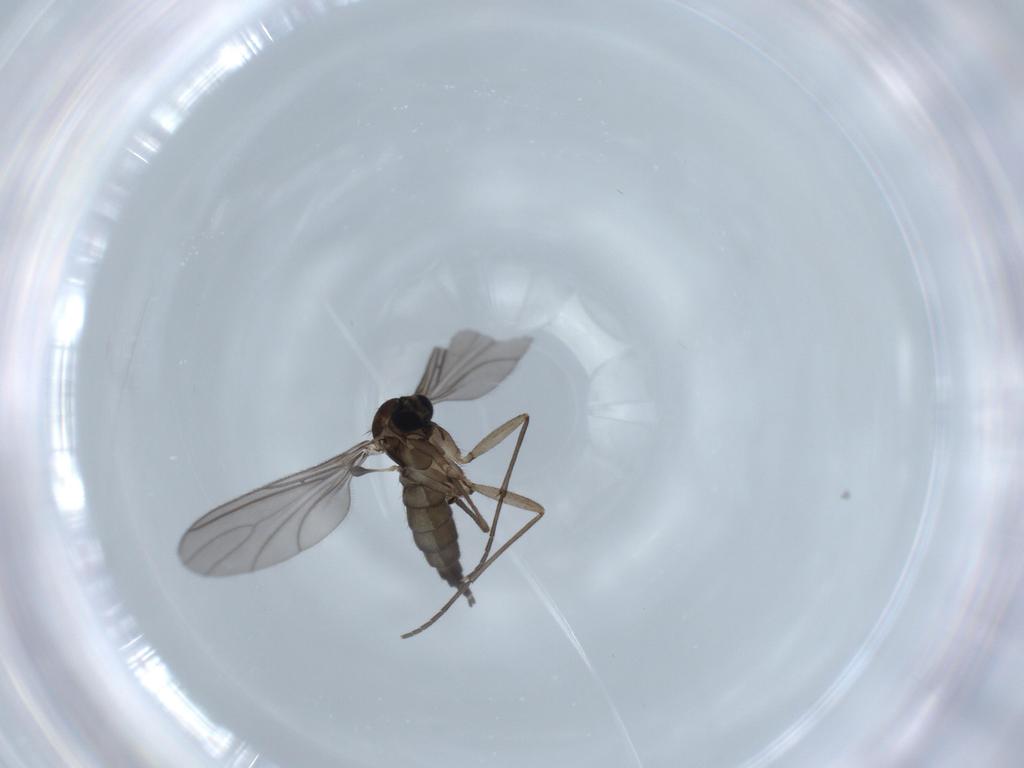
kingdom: Animalia
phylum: Arthropoda
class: Insecta
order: Diptera
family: Sciaridae
